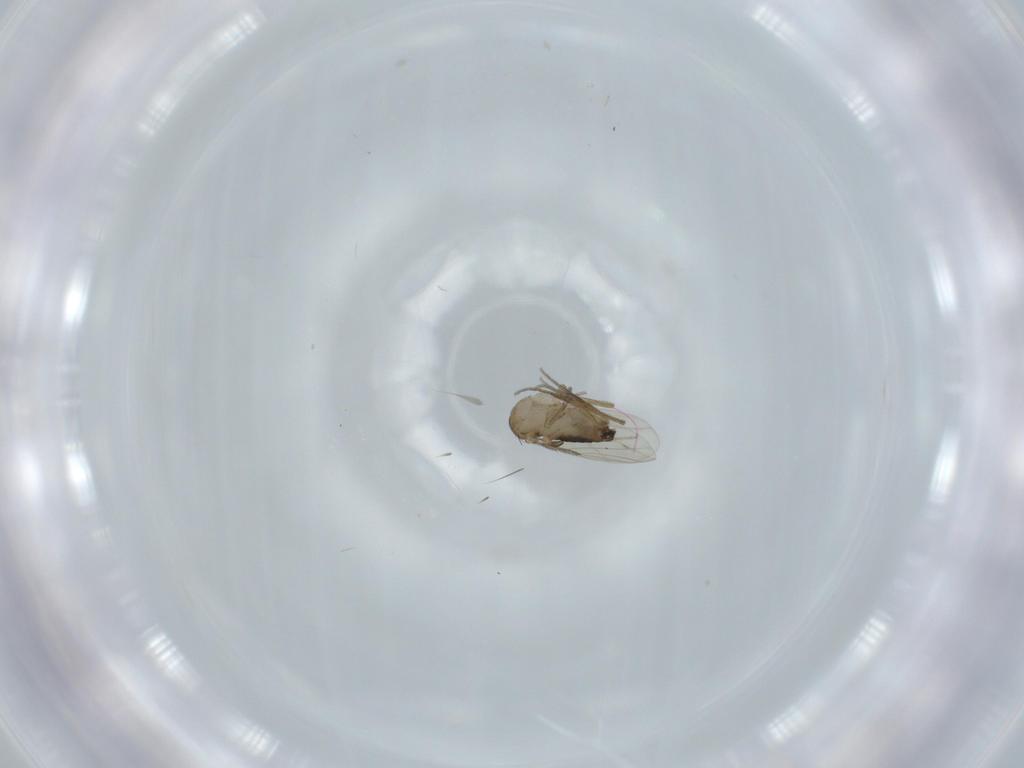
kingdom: Animalia
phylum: Arthropoda
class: Insecta
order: Diptera
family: Phoridae
